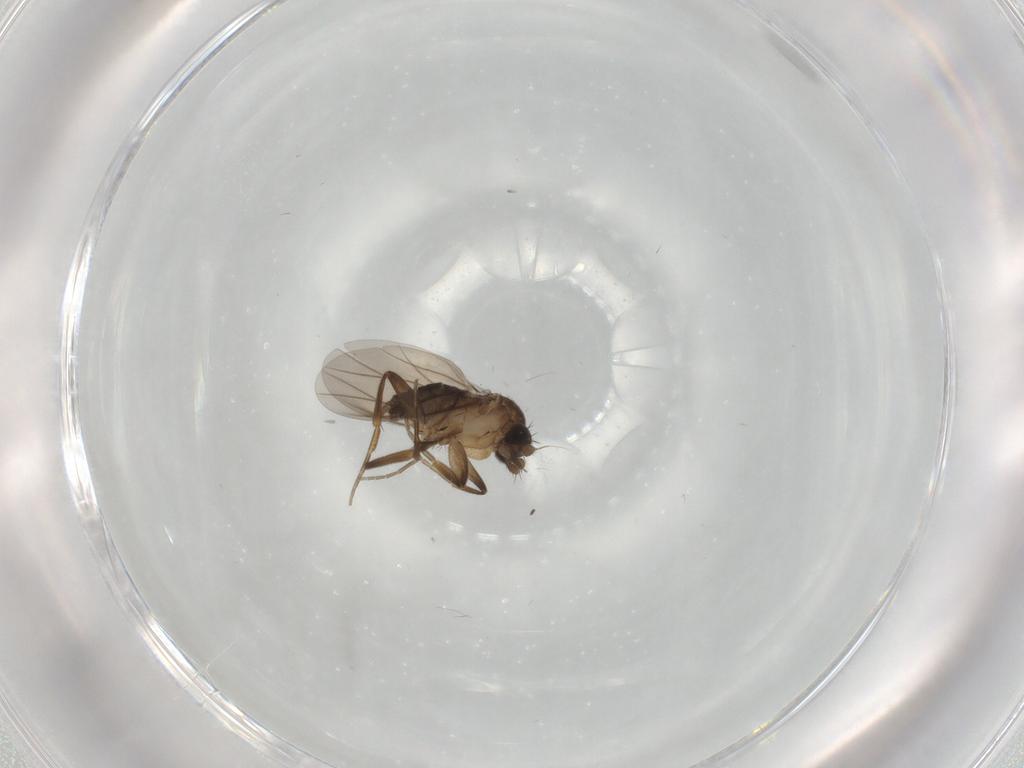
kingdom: Animalia
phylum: Arthropoda
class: Insecta
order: Diptera
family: Phoridae
